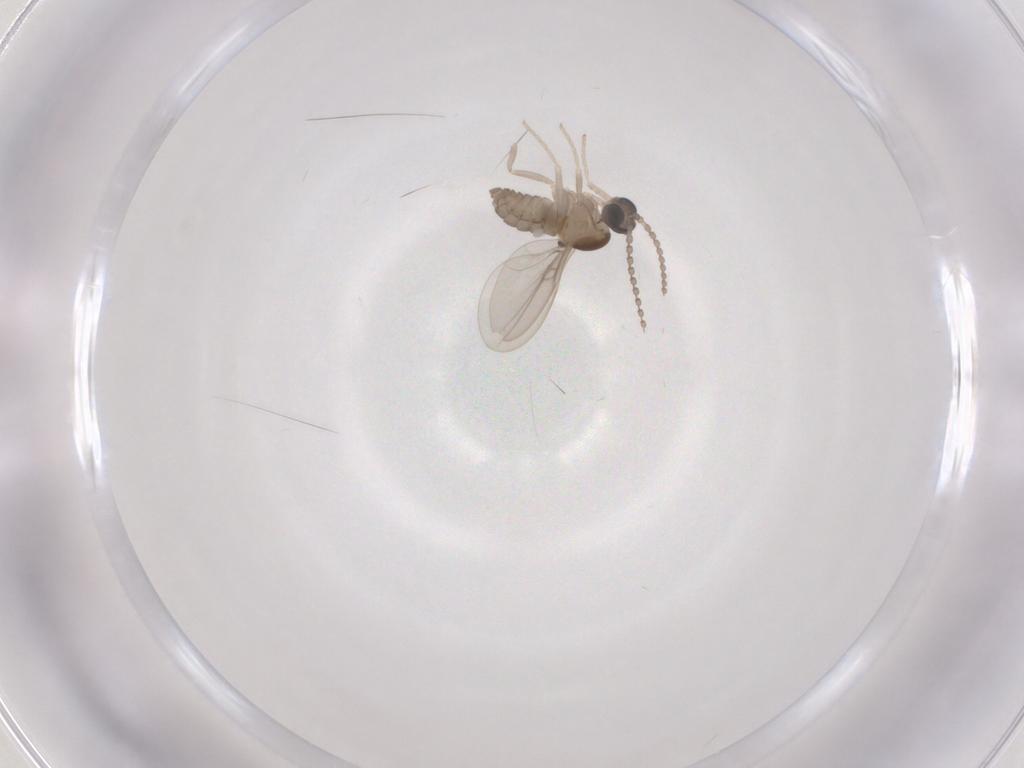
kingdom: Animalia
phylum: Arthropoda
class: Insecta
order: Diptera
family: Cecidomyiidae
